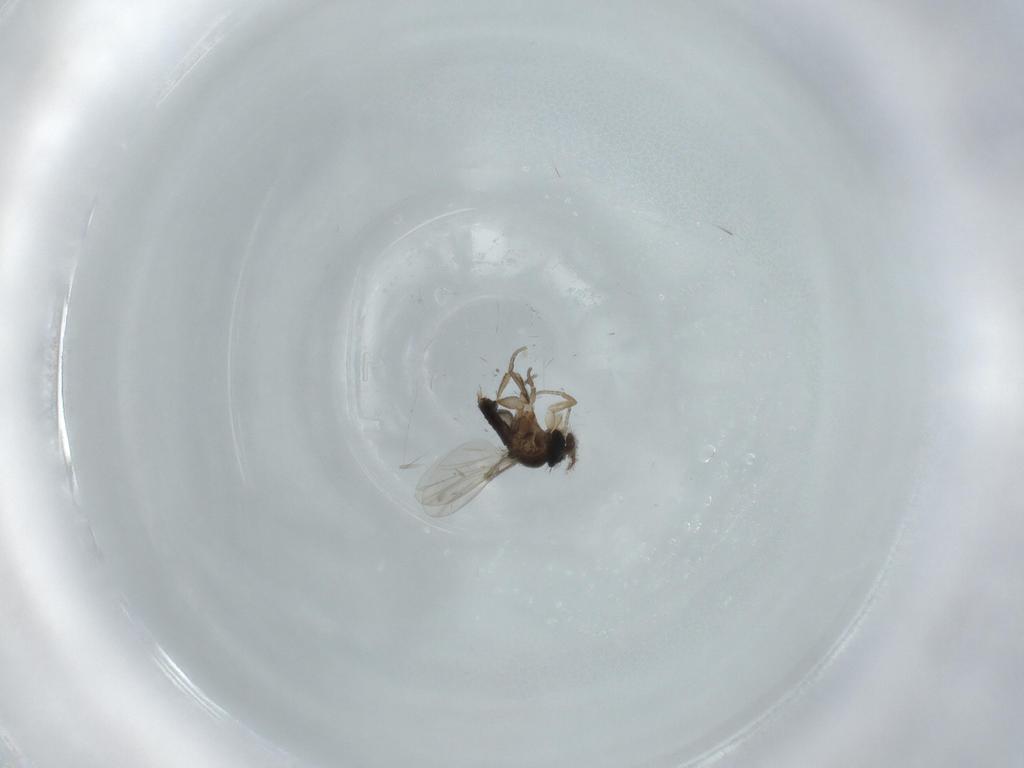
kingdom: Animalia
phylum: Arthropoda
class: Insecta
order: Diptera
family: Phoridae
